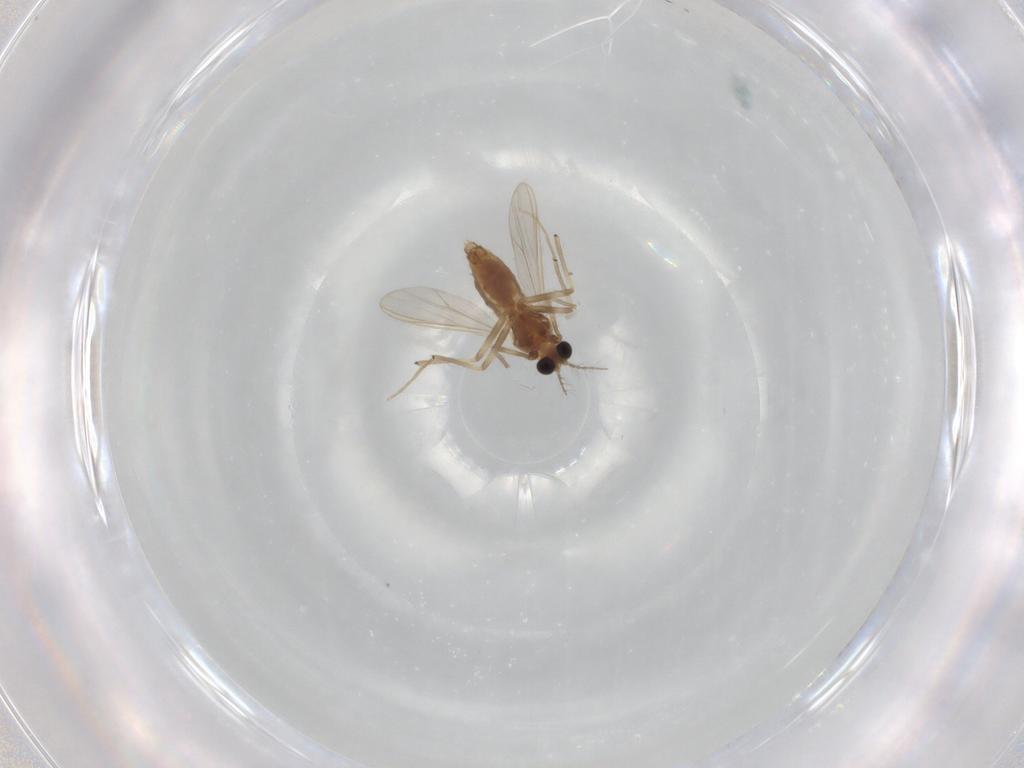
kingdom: Animalia
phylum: Arthropoda
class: Insecta
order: Diptera
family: Chironomidae
